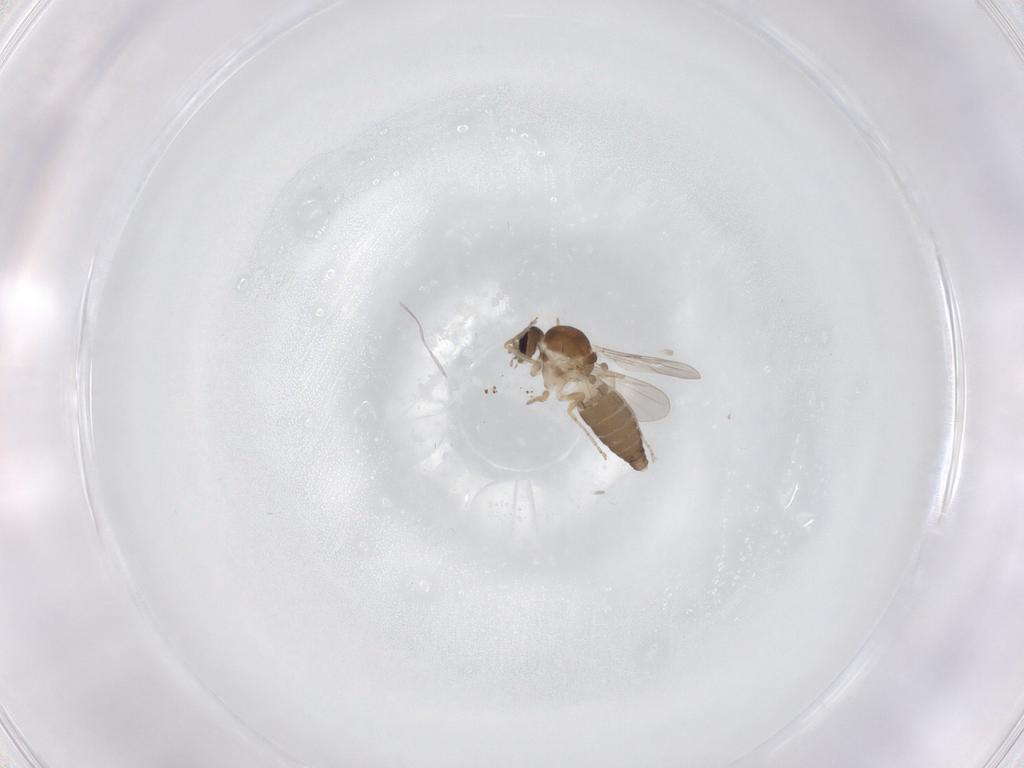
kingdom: Animalia
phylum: Arthropoda
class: Insecta
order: Diptera
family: Ceratopogonidae
